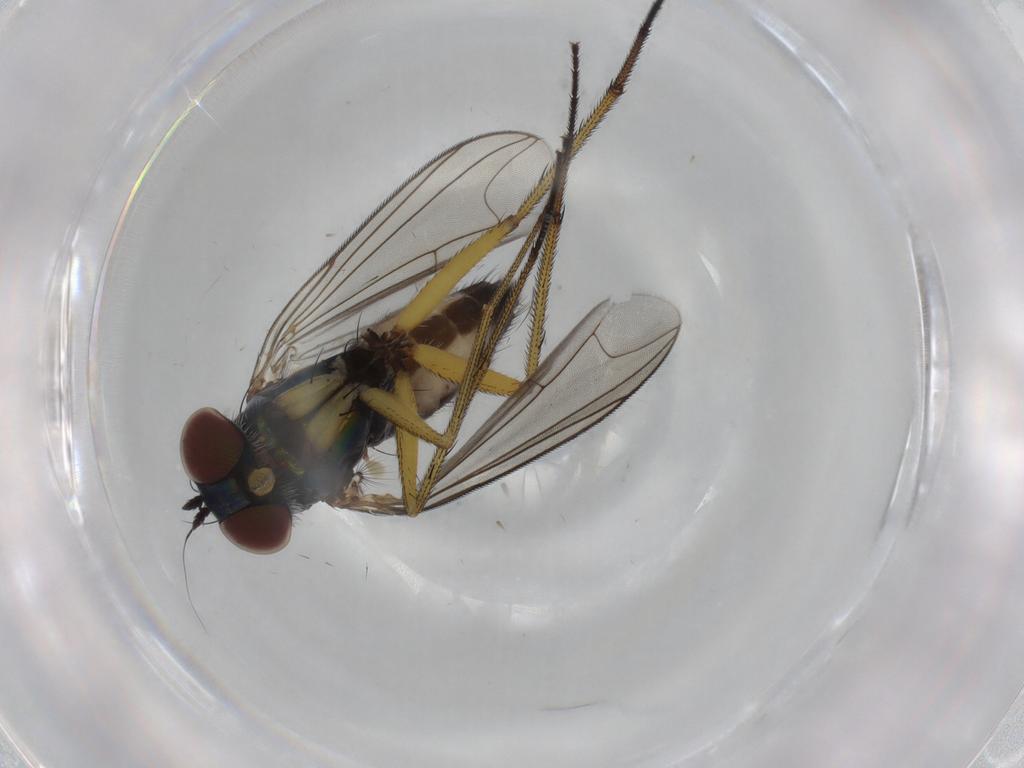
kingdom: Animalia
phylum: Arthropoda
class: Insecta
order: Diptera
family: Dolichopodidae
